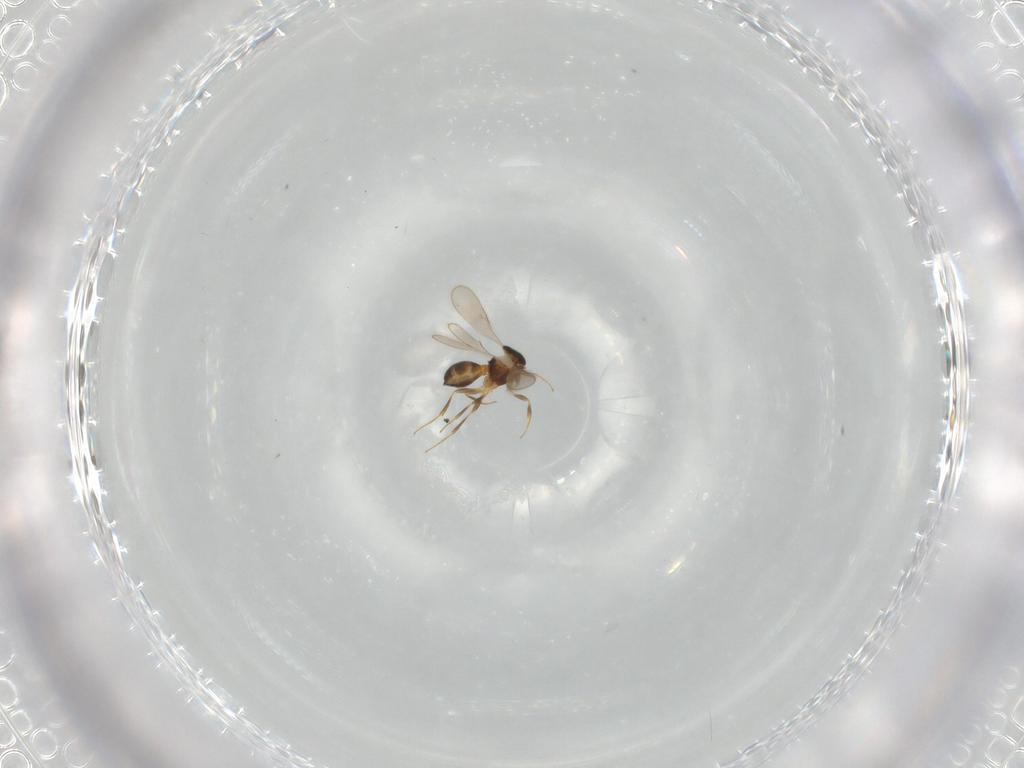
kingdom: Animalia
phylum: Arthropoda
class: Insecta
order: Hymenoptera
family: Scelionidae
